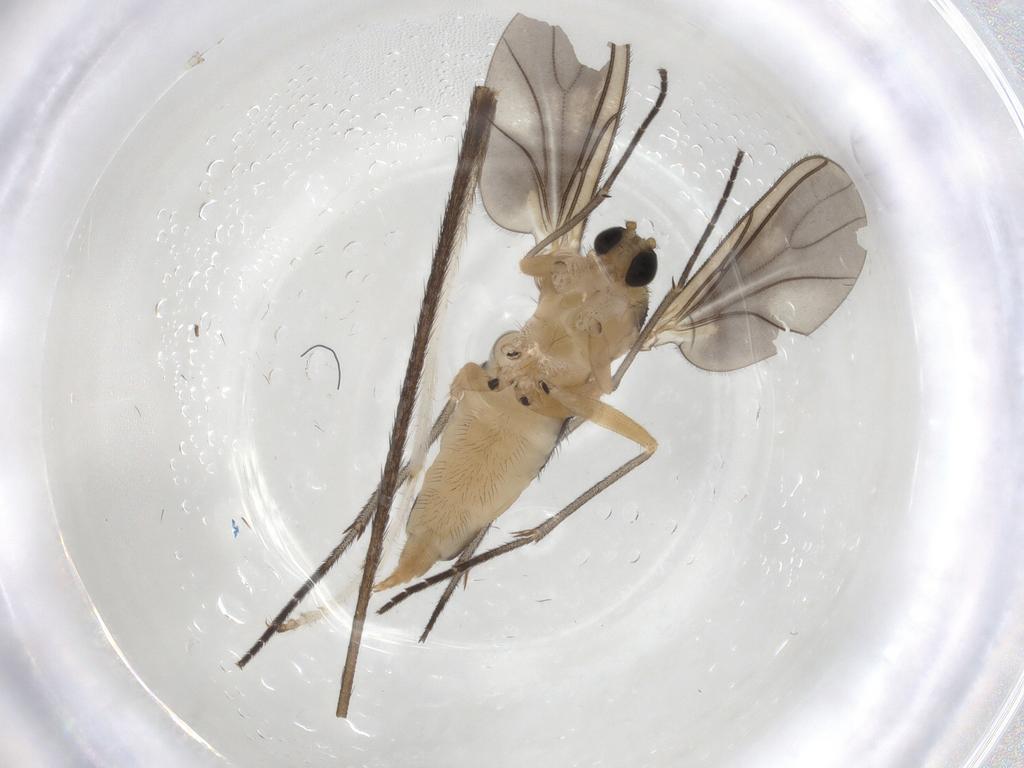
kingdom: Animalia
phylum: Arthropoda
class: Insecta
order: Diptera
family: Sciaridae
